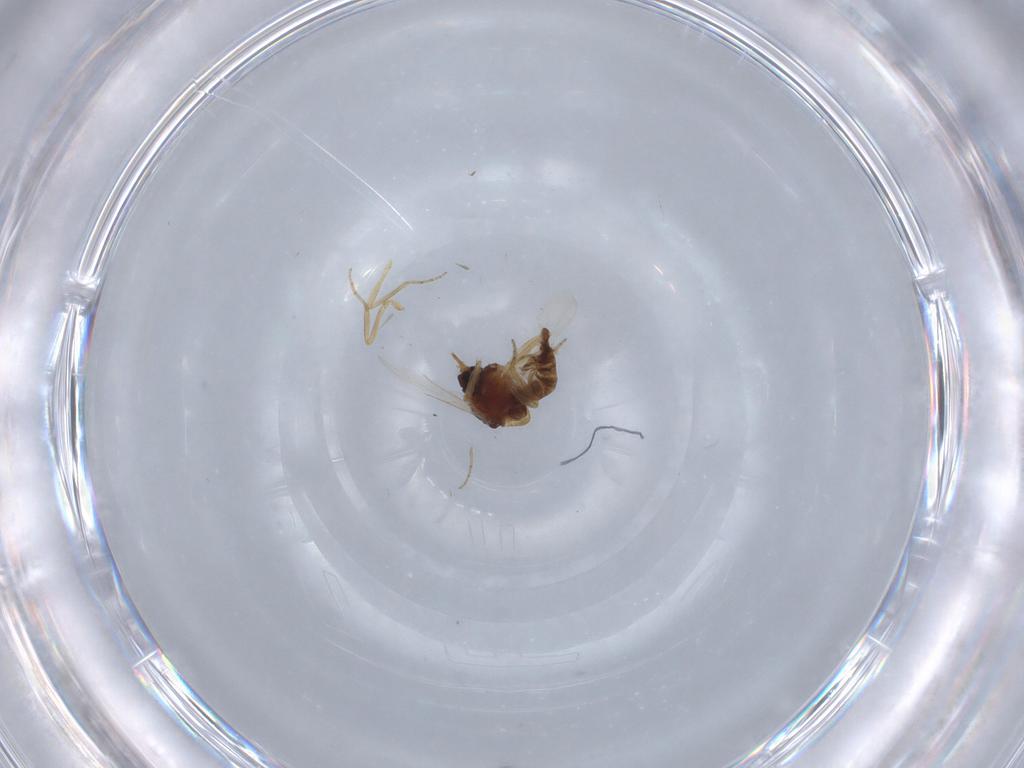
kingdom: Animalia
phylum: Arthropoda
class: Insecta
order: Diptera
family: Ceratopogonidae
